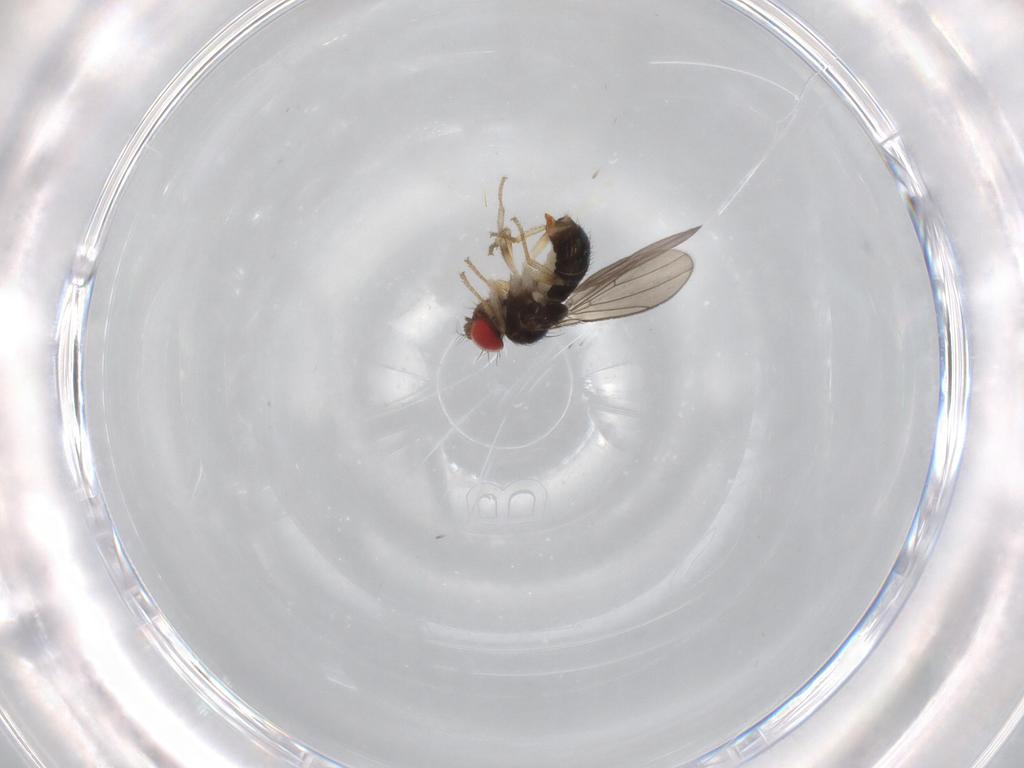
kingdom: Animalia
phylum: Arthropoda
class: Insecta
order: Diptera
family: Drosophilidae
